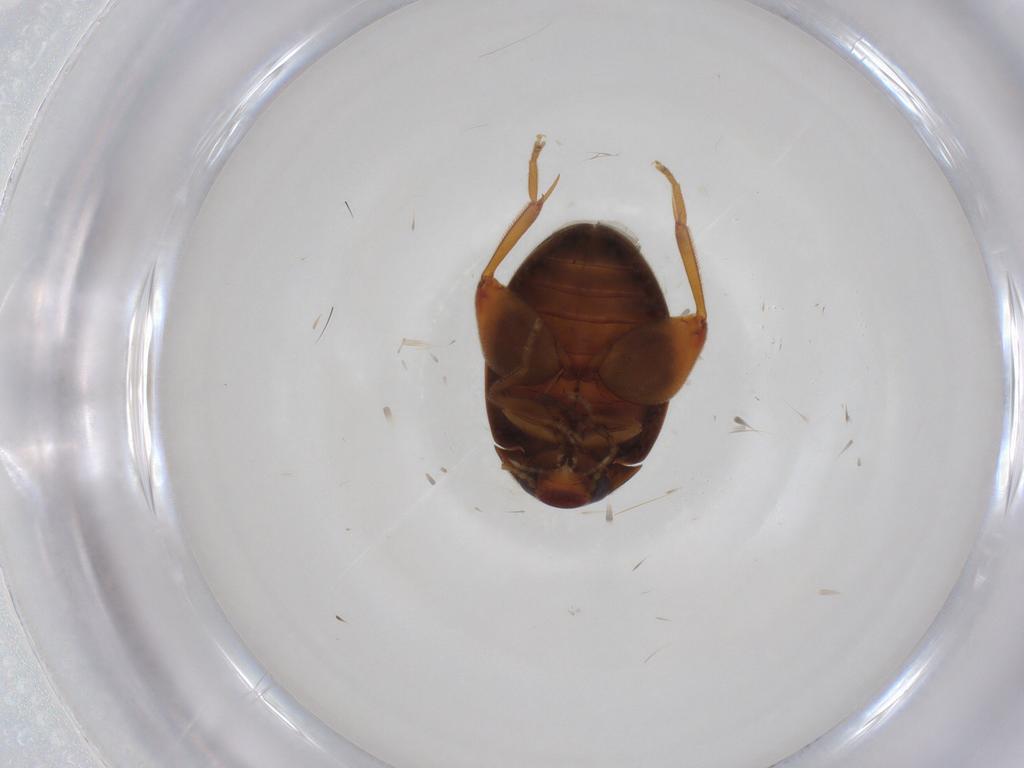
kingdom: Animalia
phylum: Arthropoda
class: Insecta
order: Coleoptera
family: Scirtidae
